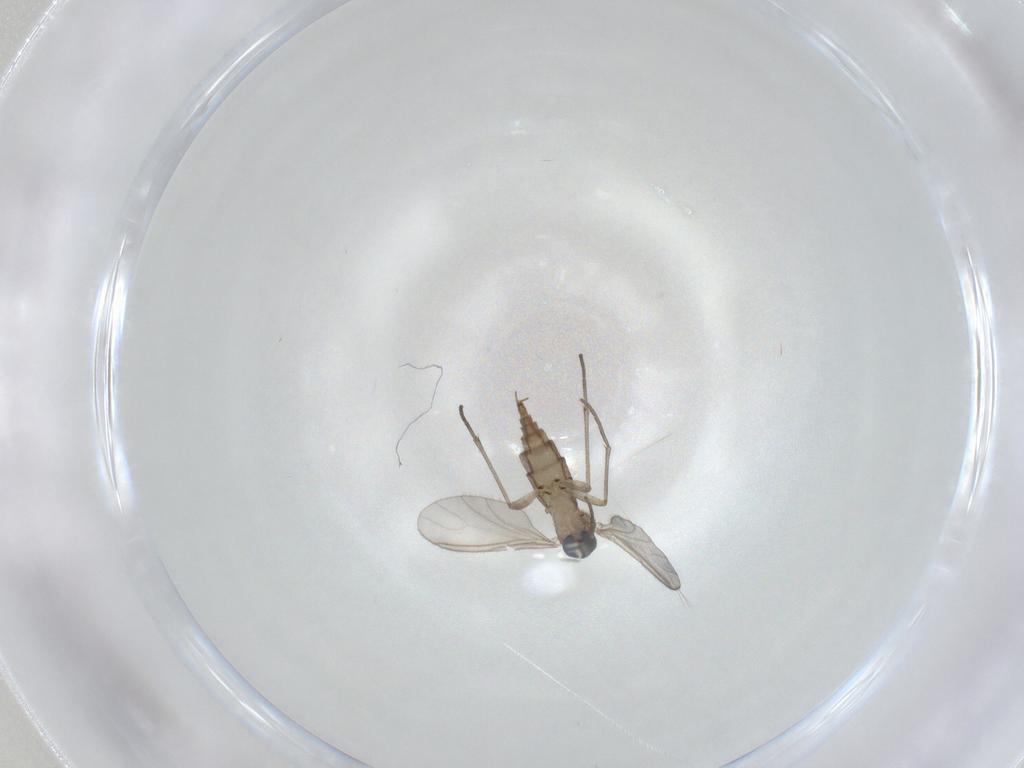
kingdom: Animalia
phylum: Arthropoda
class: Insecta
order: Diptera
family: Sciaridae
